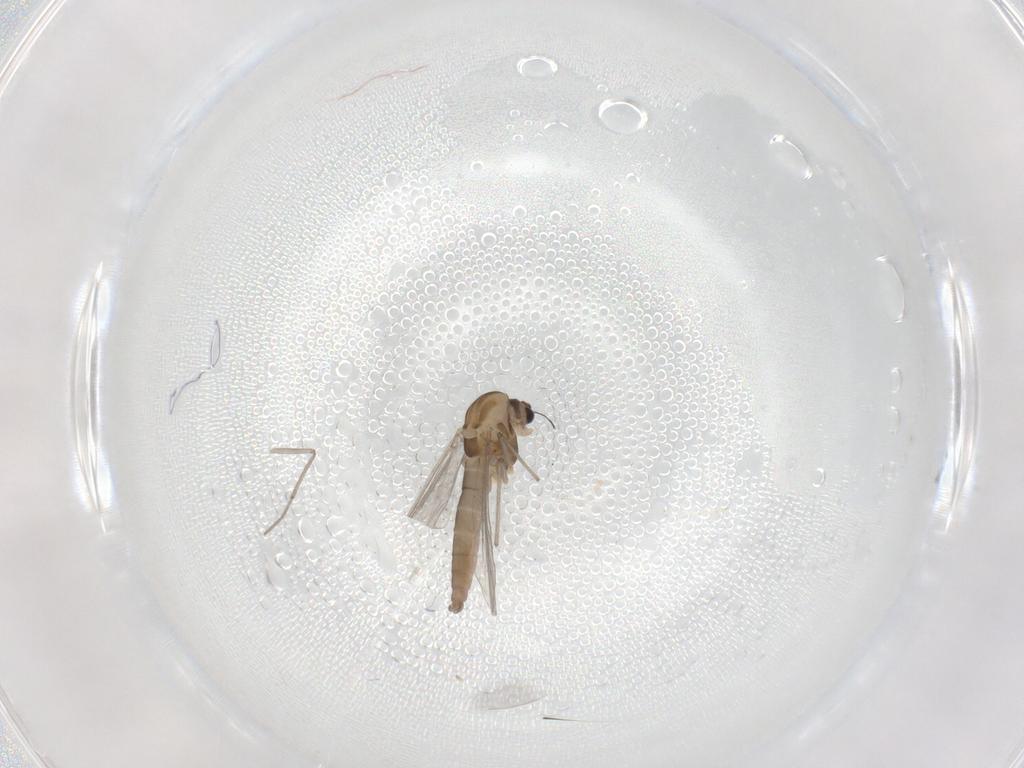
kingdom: Animalia
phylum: Arthropoda
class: Insecta
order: Diptera
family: Chironomidae
